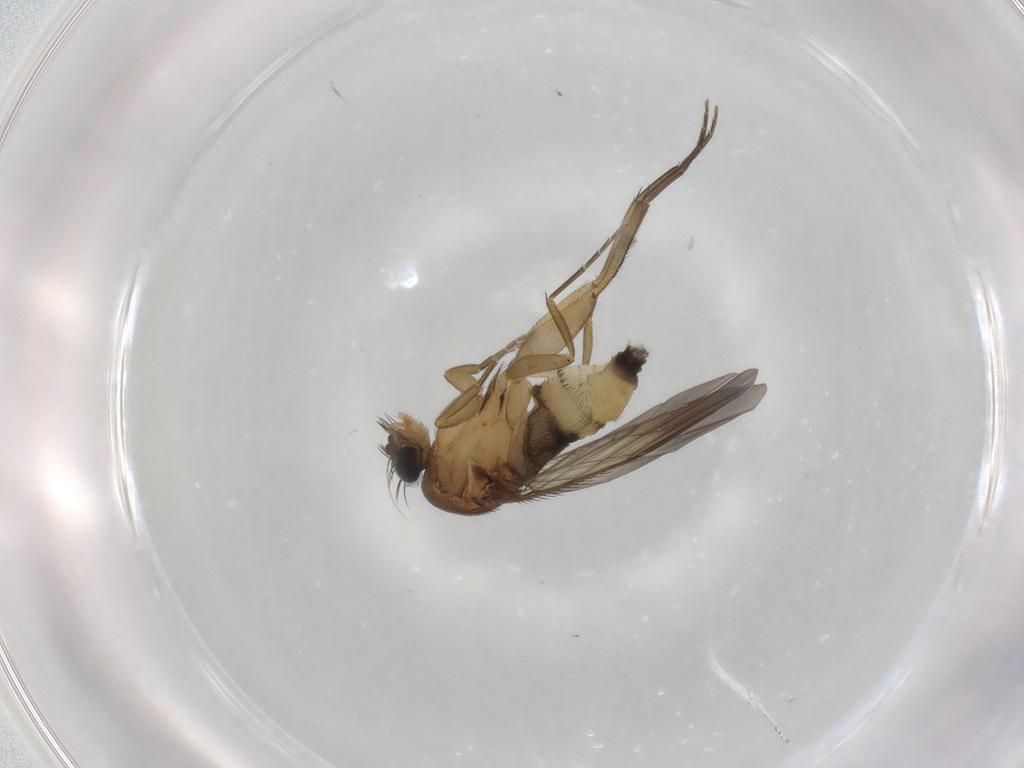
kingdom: Animalia
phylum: Arthropoda
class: Insecta
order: Diptera
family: Phoridae
